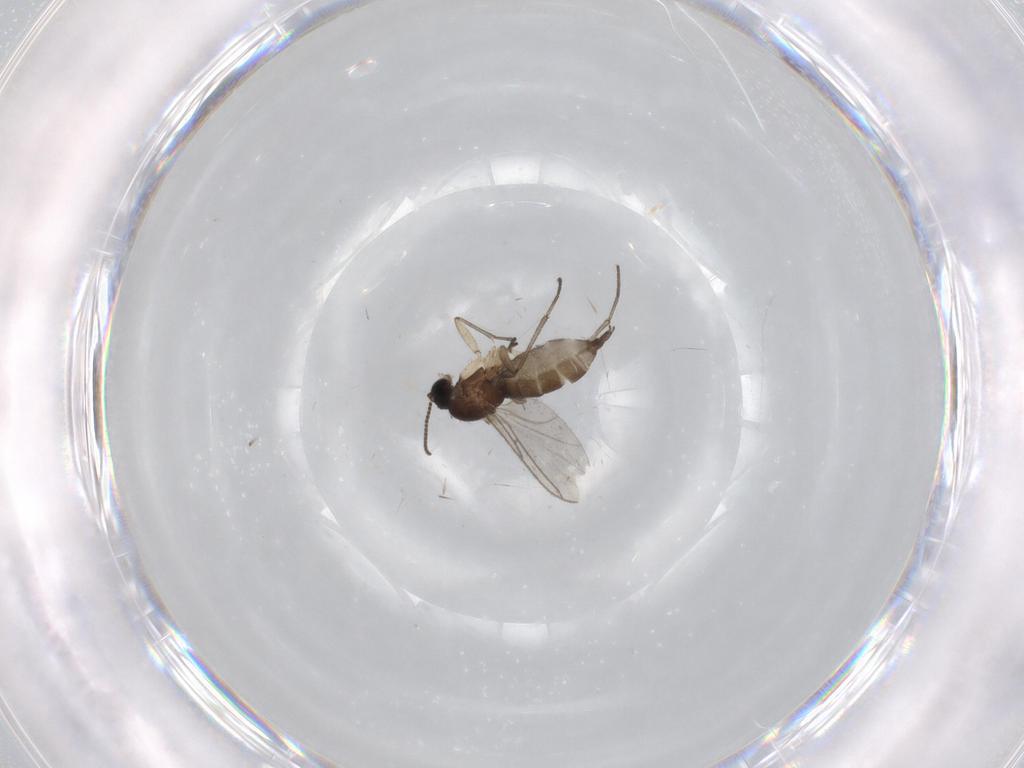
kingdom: Animalia
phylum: Arthropoda
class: Insecta
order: Diptera
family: Sciaridae
